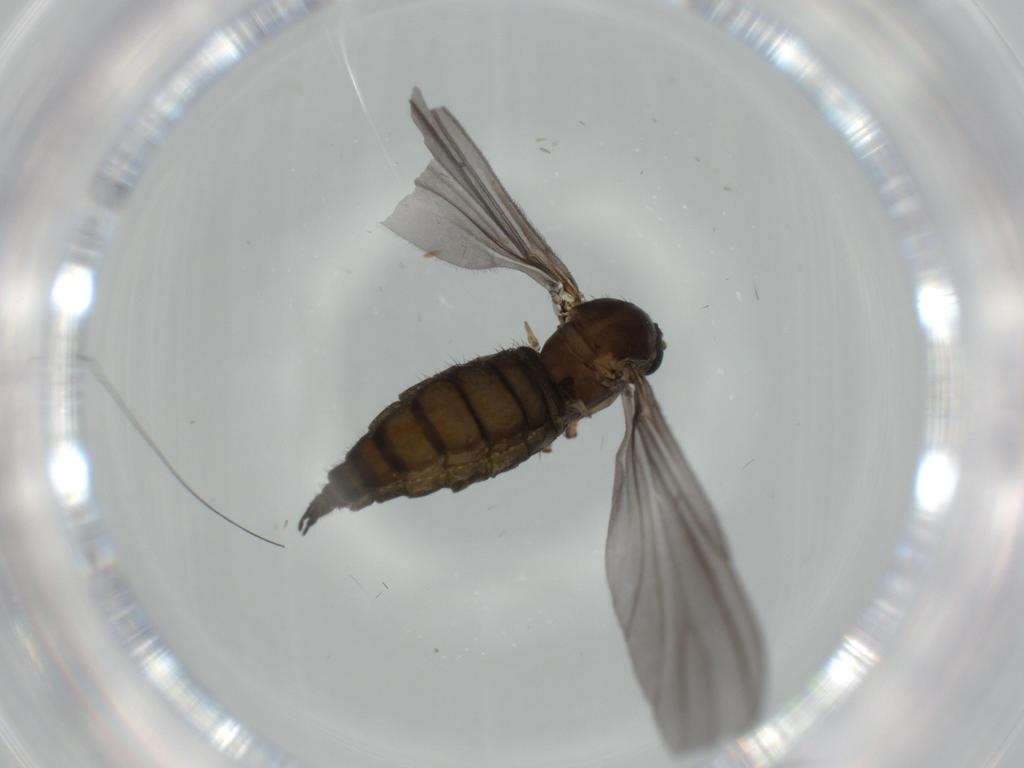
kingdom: Animalia
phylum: Arthropoda
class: Insecta
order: Diptera
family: Sciaridae
